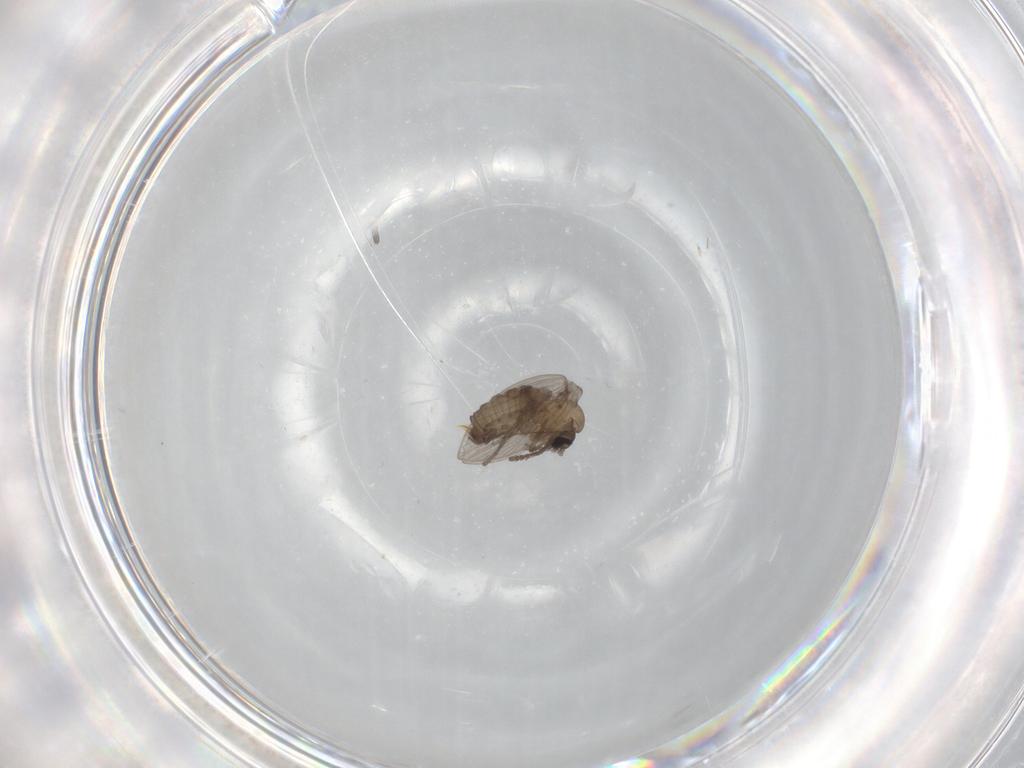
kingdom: Animalia
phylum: Arthropoda
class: Insecta
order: Diptera
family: Psychodidae
